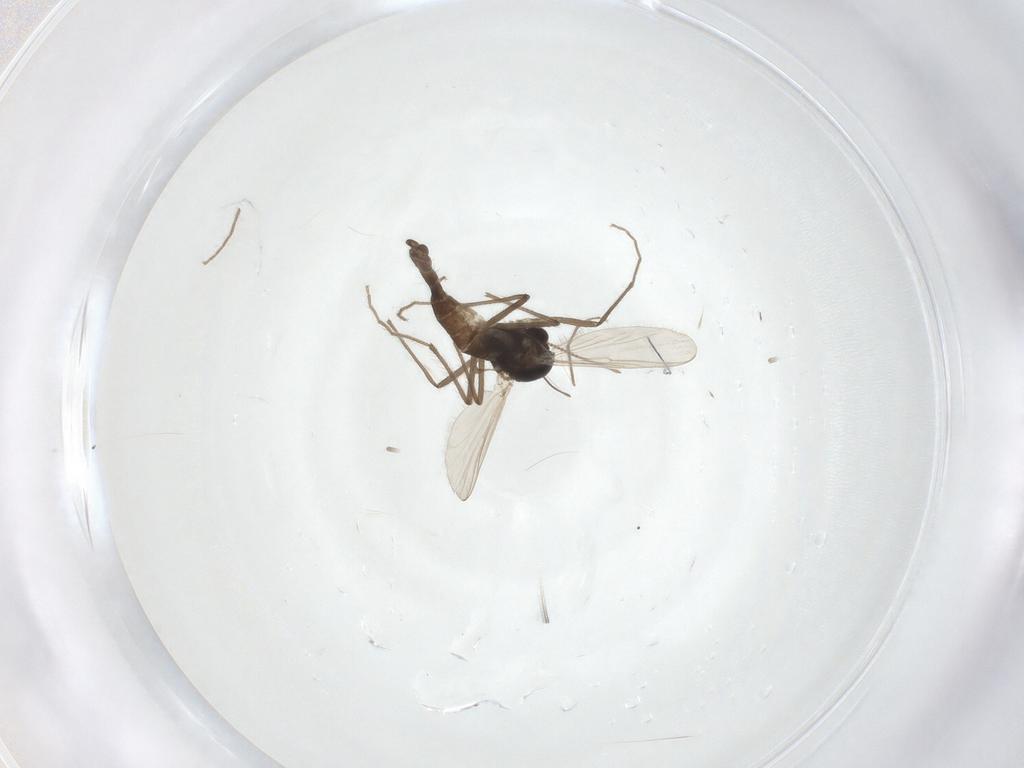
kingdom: Animalia
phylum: Arthropoda
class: Insecta
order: Diptera
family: Chironomidae
